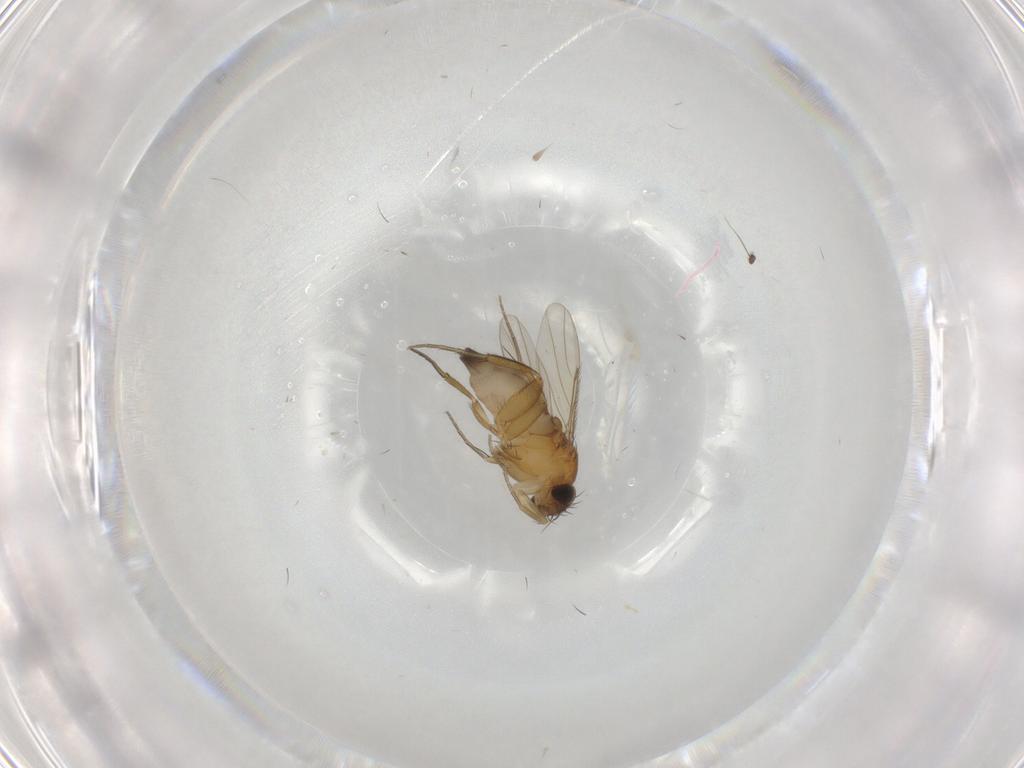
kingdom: Animalia
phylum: Arthropoda
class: Insecta
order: Diptera
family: Phoridae
